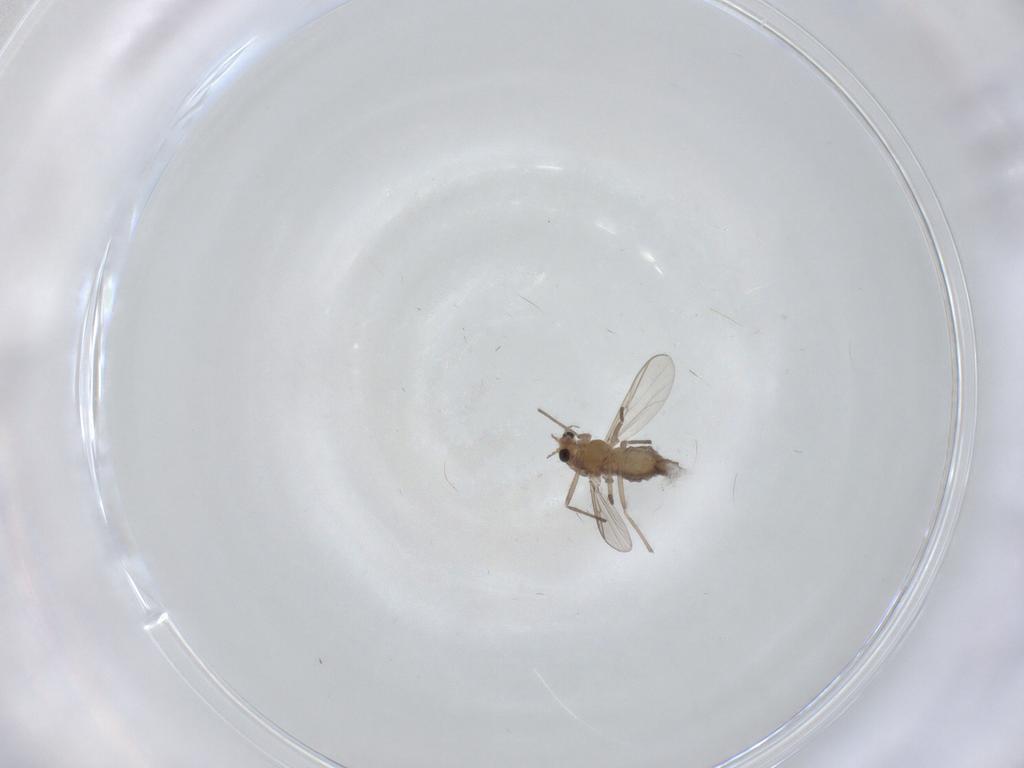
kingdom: Animalia
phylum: Arthropoda
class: Insecta
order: Diptera
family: Chironomidae
